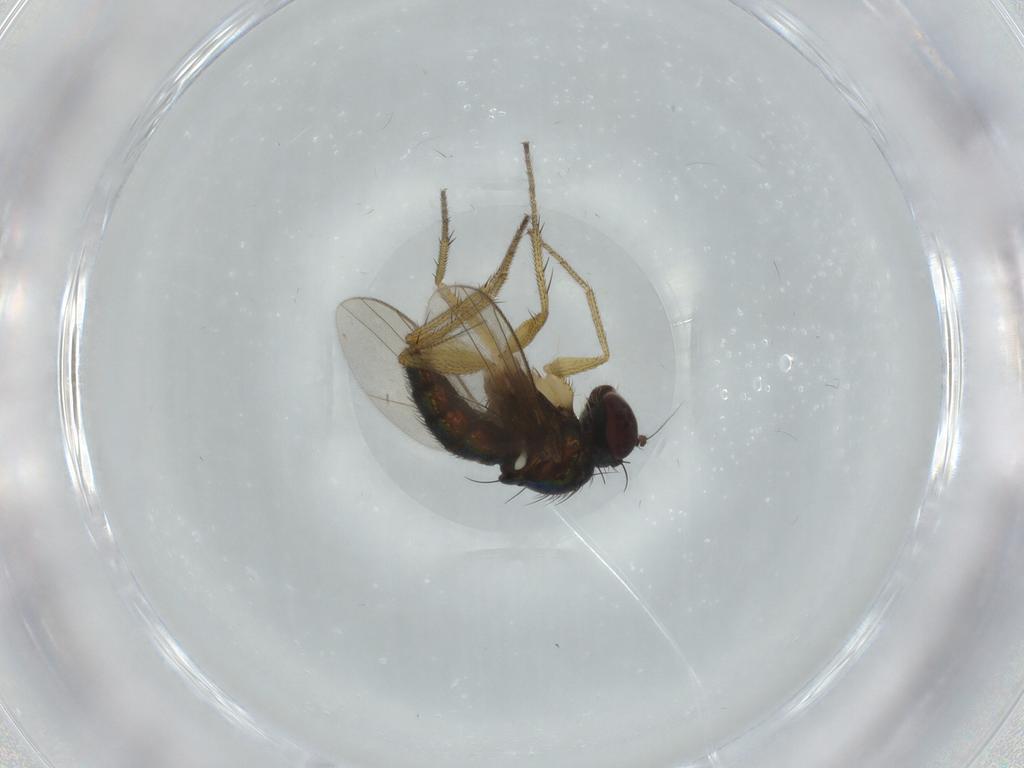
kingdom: Animalia
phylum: Arthropoda
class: Insecta
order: Diptera
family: Dolichopodidae
